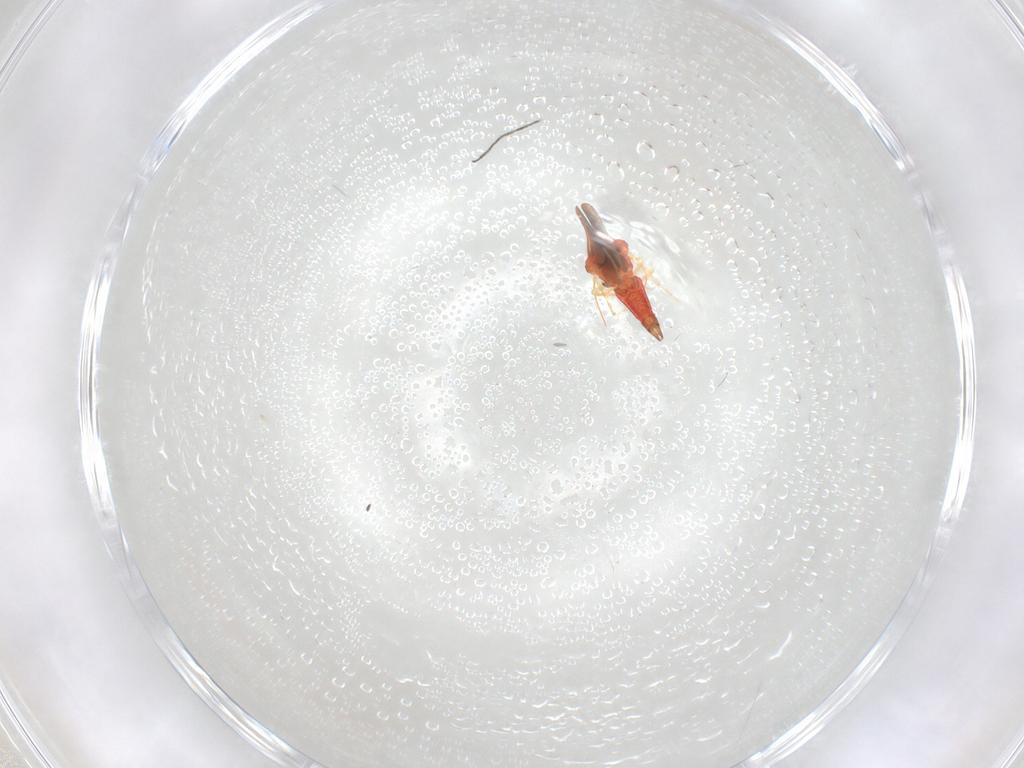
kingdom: Animalia
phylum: Arthropoda
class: Insecta
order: Hemiptera
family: Aleyrodidae
